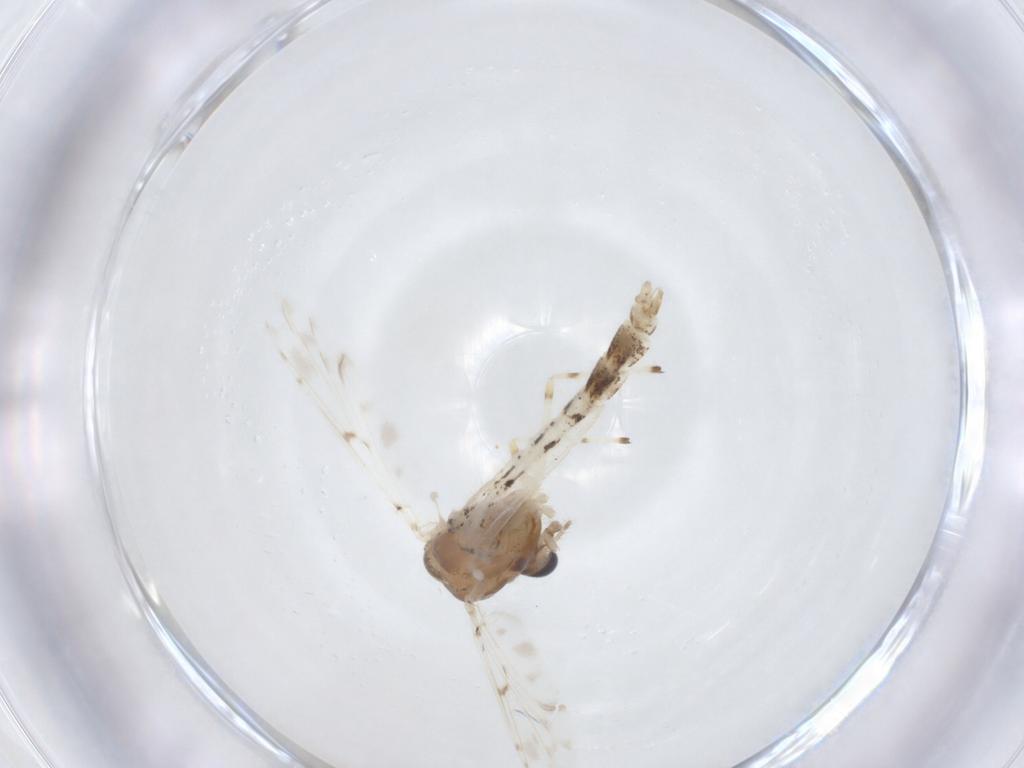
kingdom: Animalia
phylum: Arthropoda
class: Insecta
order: Diptera
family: Chironomidae
